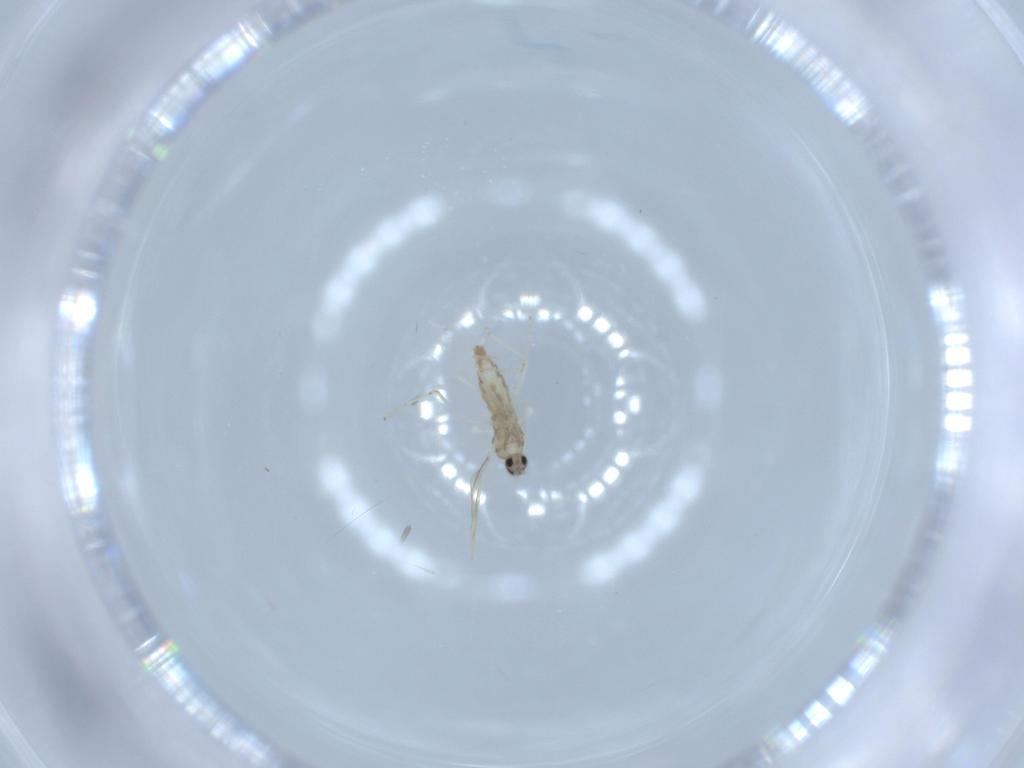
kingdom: Animalia
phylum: Arthropoda
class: Insecta
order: Diptera
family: Cecidomyiidae
